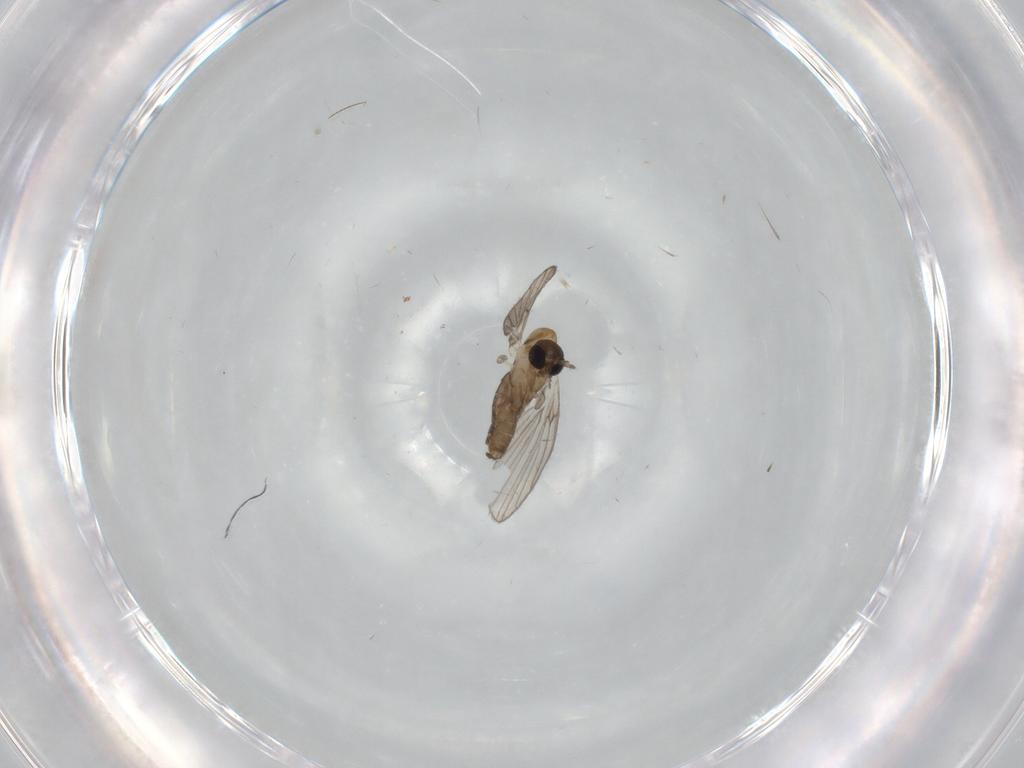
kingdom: Animalia
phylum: Arthropoda
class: Insecta
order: Diptera
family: Psychodidae
